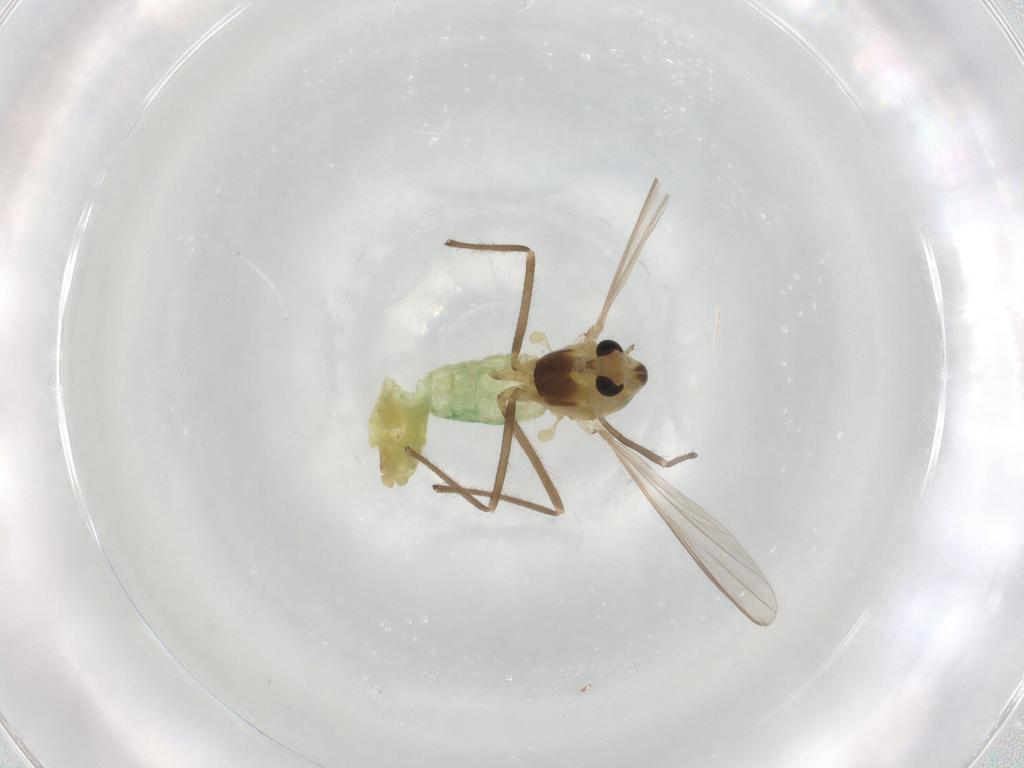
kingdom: Animalia
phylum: Arthropoda
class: Insecta
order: Diptera
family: Chironomidae
